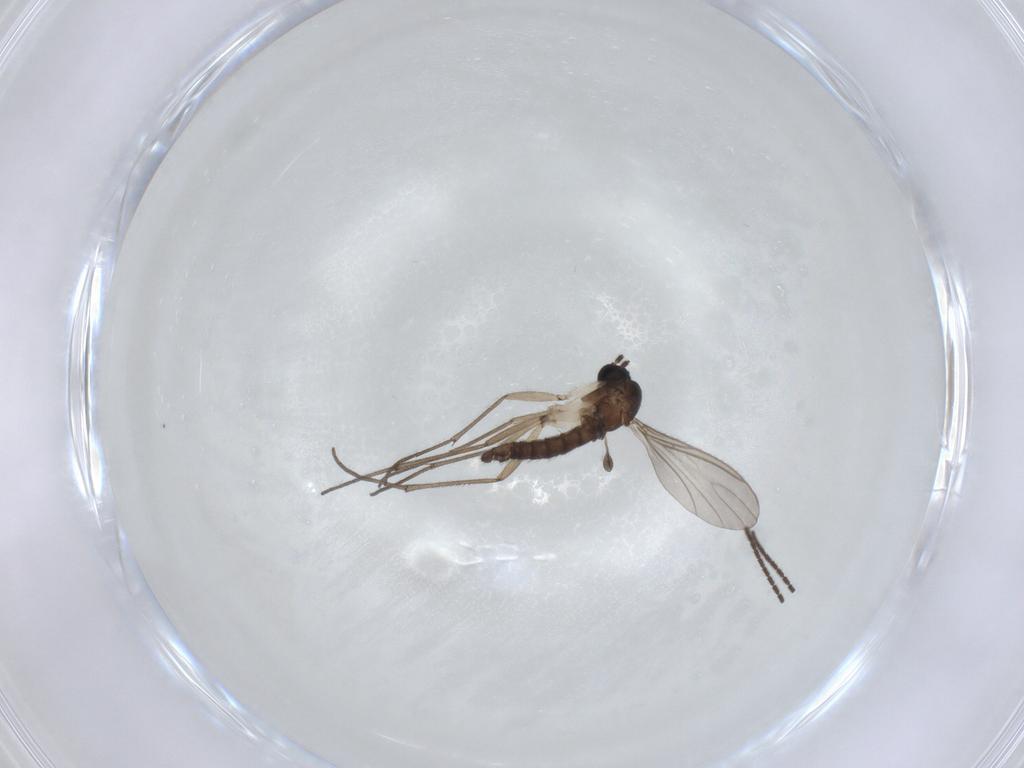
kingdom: Animalia
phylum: Arthropoda
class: Insecta
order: Diptera
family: Sciaridae
